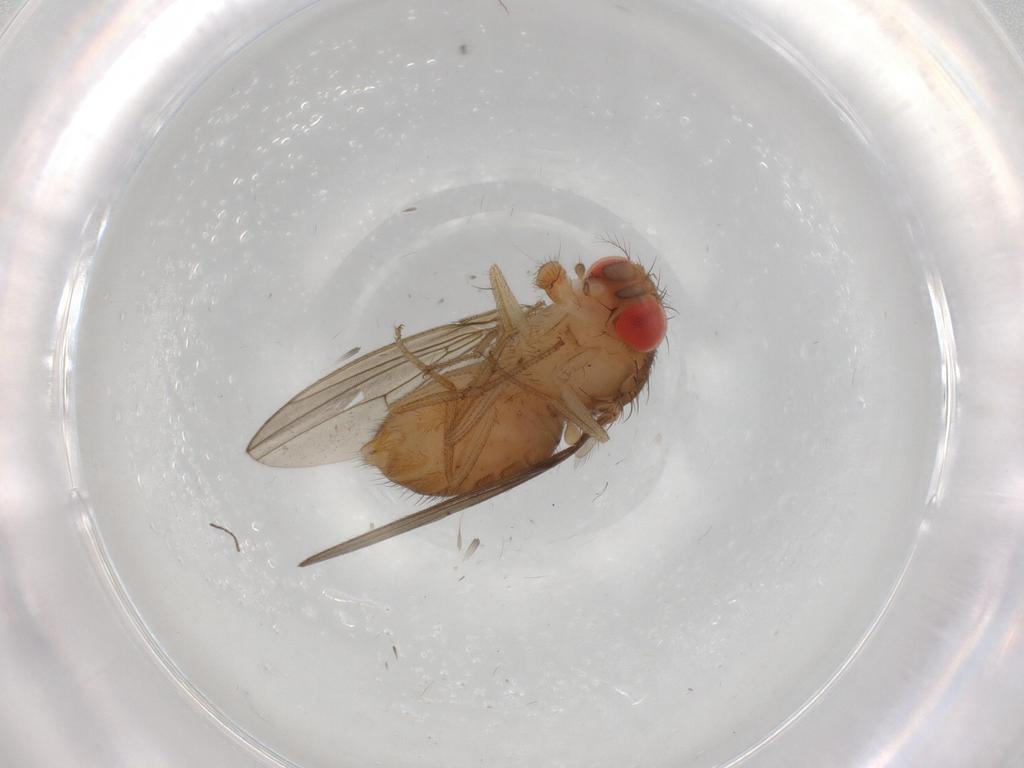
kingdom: Animalia
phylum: Arthropoda
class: Insecta
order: Diptera
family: Drosophilidae
